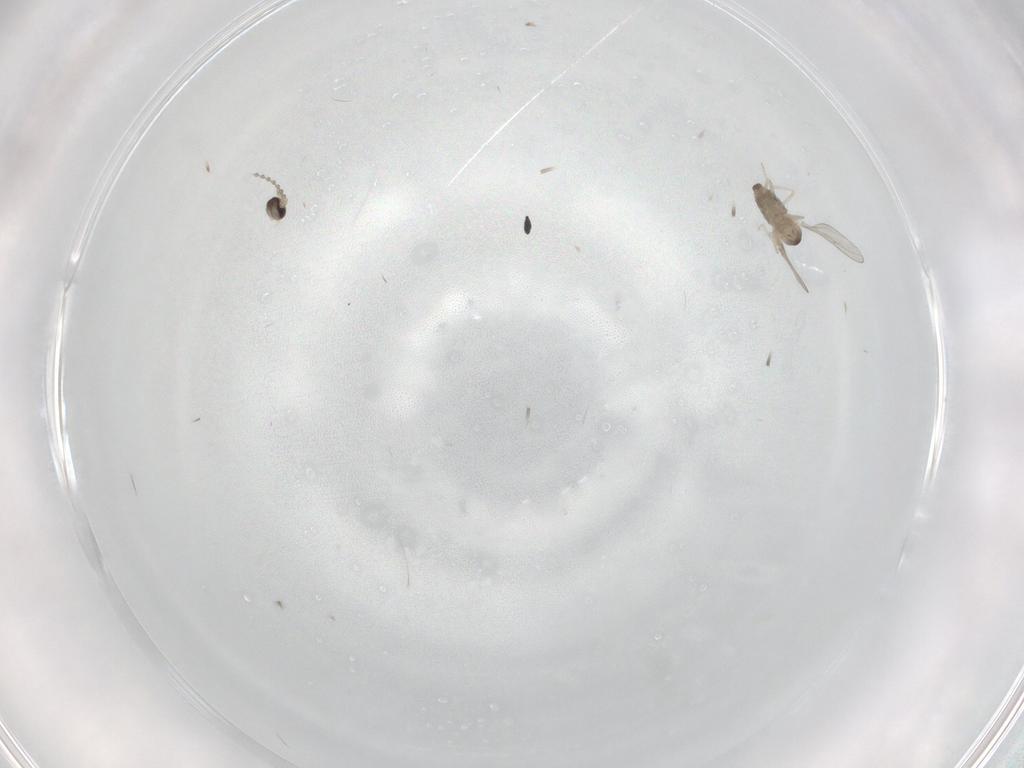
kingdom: Animalia
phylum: Arthropoda
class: Insecta
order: Diptera
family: Cecidomyiidae
